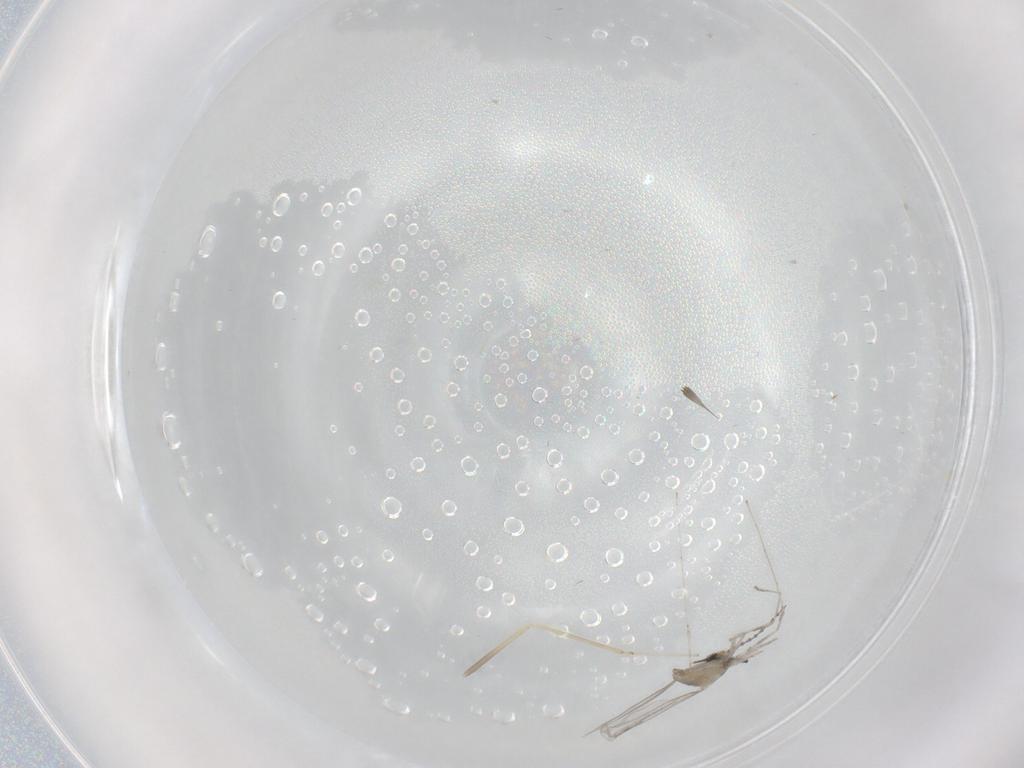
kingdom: Animalia
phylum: Arthropoda
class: Insecta
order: Diptera
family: Cecidomyiidae
